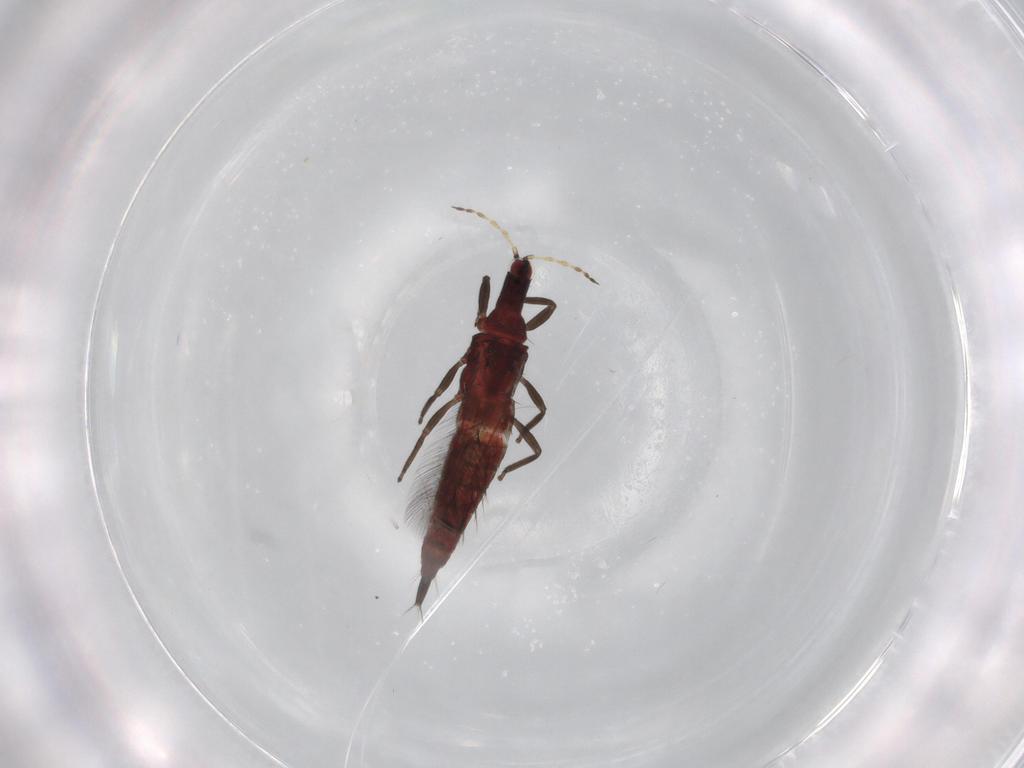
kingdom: Animalia
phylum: Arthropoda
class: Insecta
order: Thysanoptera
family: Phlaeothripidae
